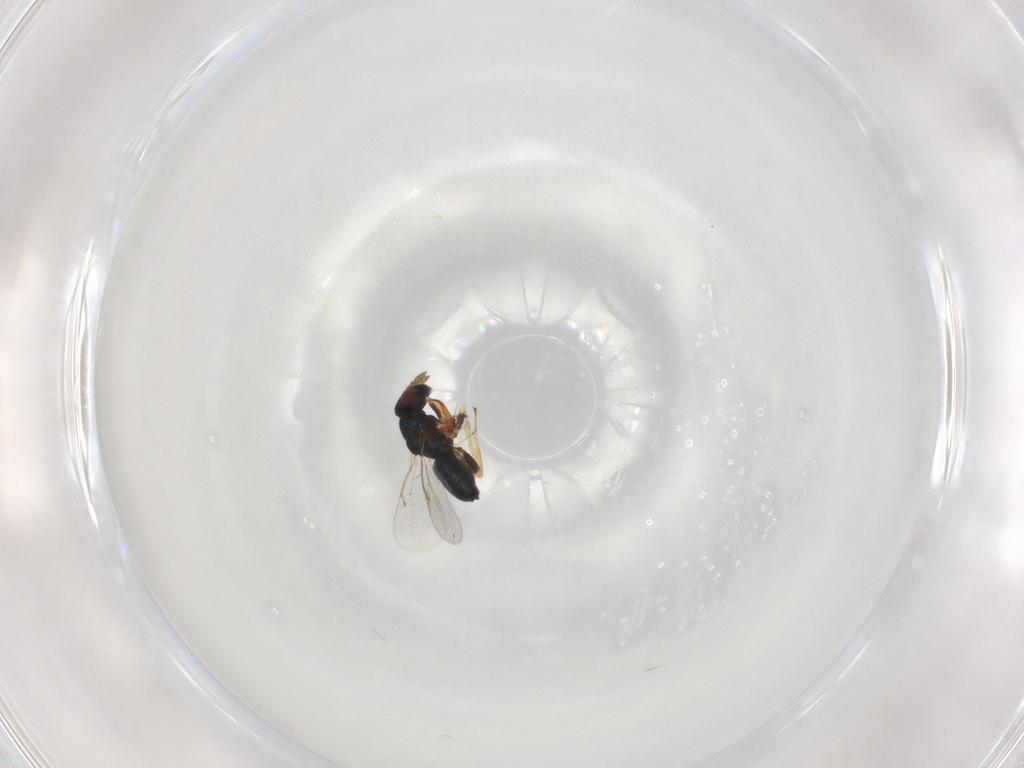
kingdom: Animalia
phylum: Arthropoda
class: Insecta
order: Hymenoptera
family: Eulophidae
